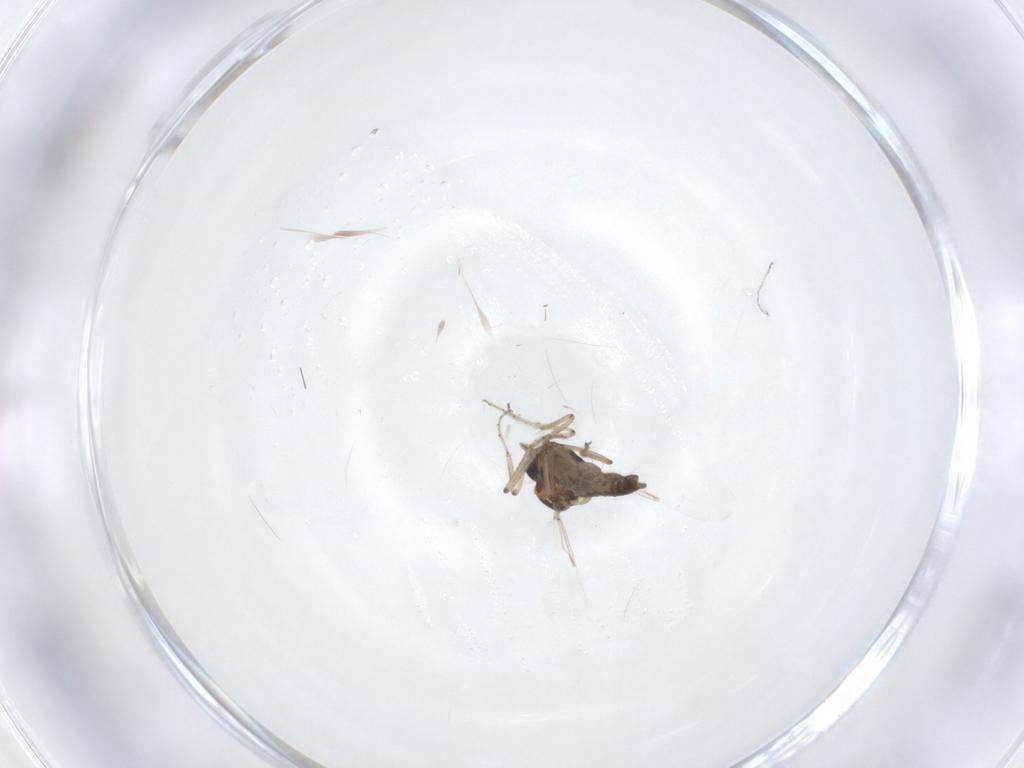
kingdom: Animalia
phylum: Arthropoda
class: Insecta
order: Diptera
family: Ceratopogonidae
